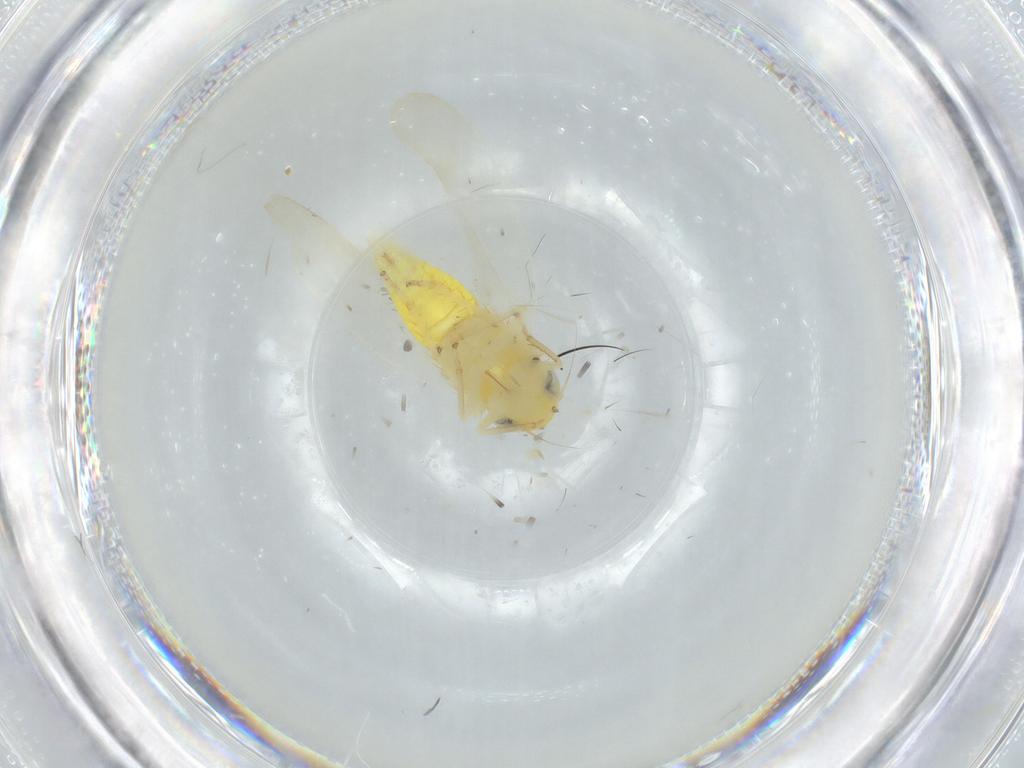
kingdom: Animalia
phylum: Arthropoda
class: Insecta
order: Hemiptera
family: Cicadellidae
